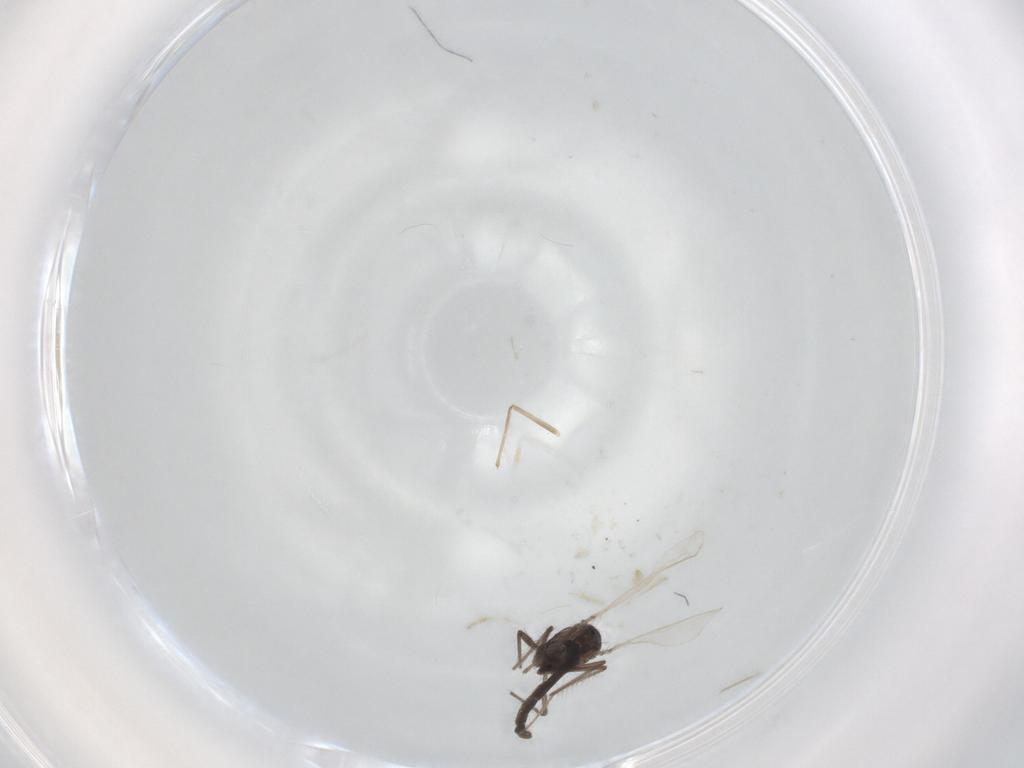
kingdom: Animalia
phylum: Arthropoda
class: Insecta
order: Diptera
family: Chironomidae
